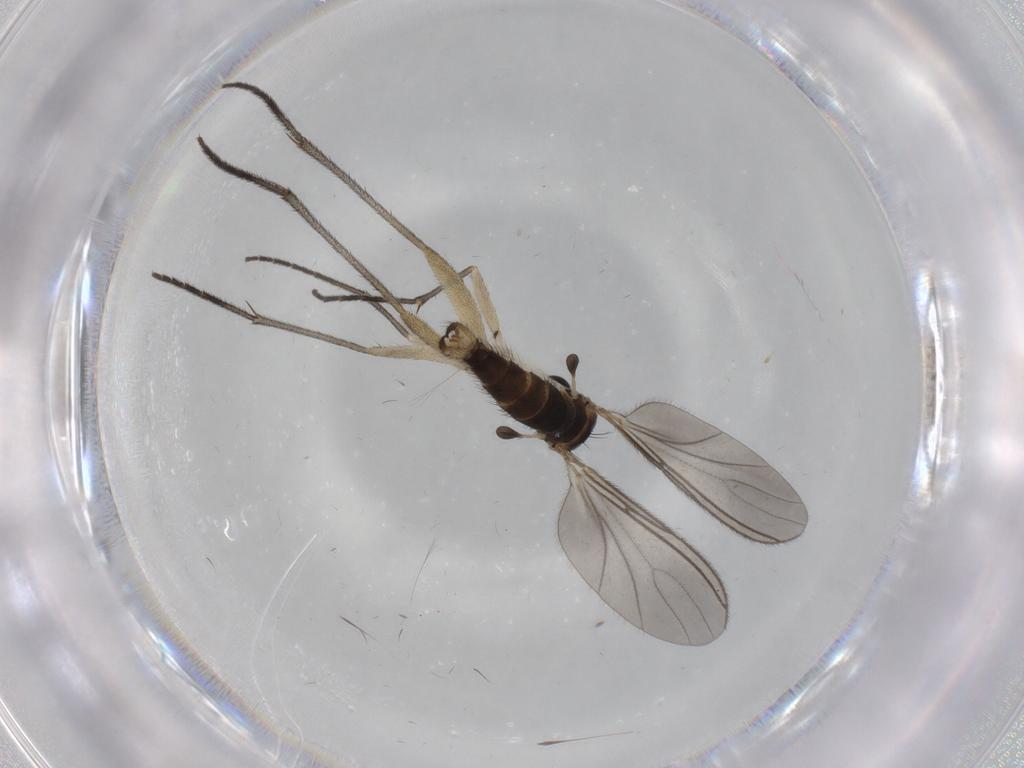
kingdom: Animalia
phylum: Arthropoda
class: Insecta
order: Diptera
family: Sciaridae
